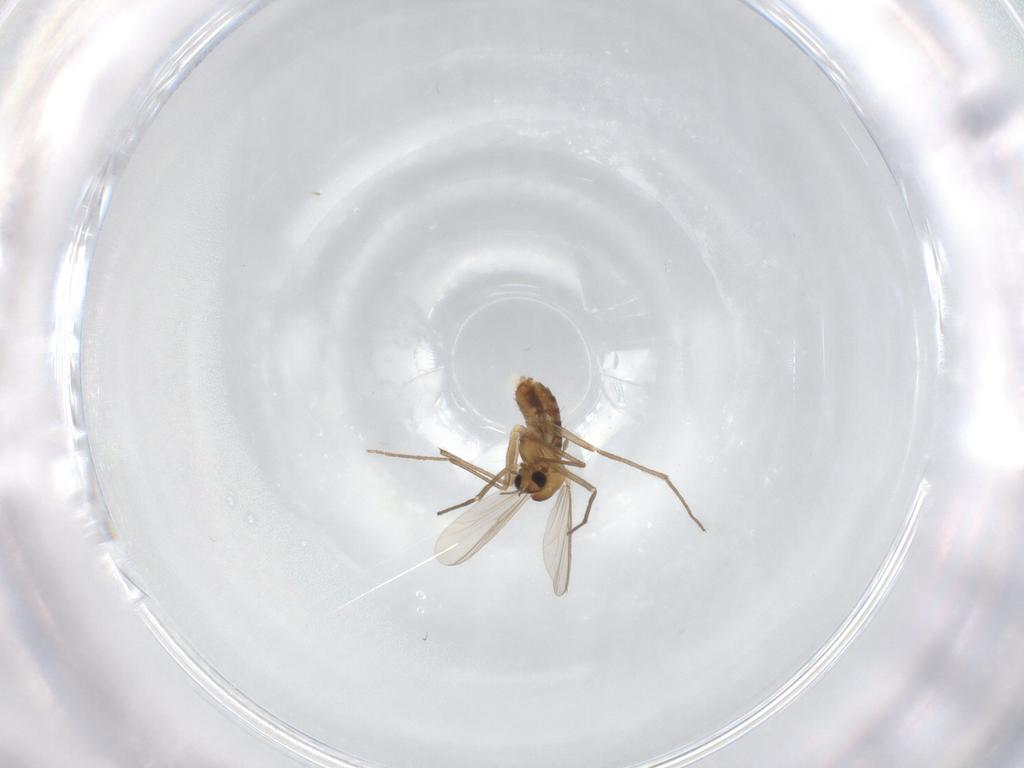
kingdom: Animalia
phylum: Arthropoda
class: Insecta
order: Diptera
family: Chironomidae
